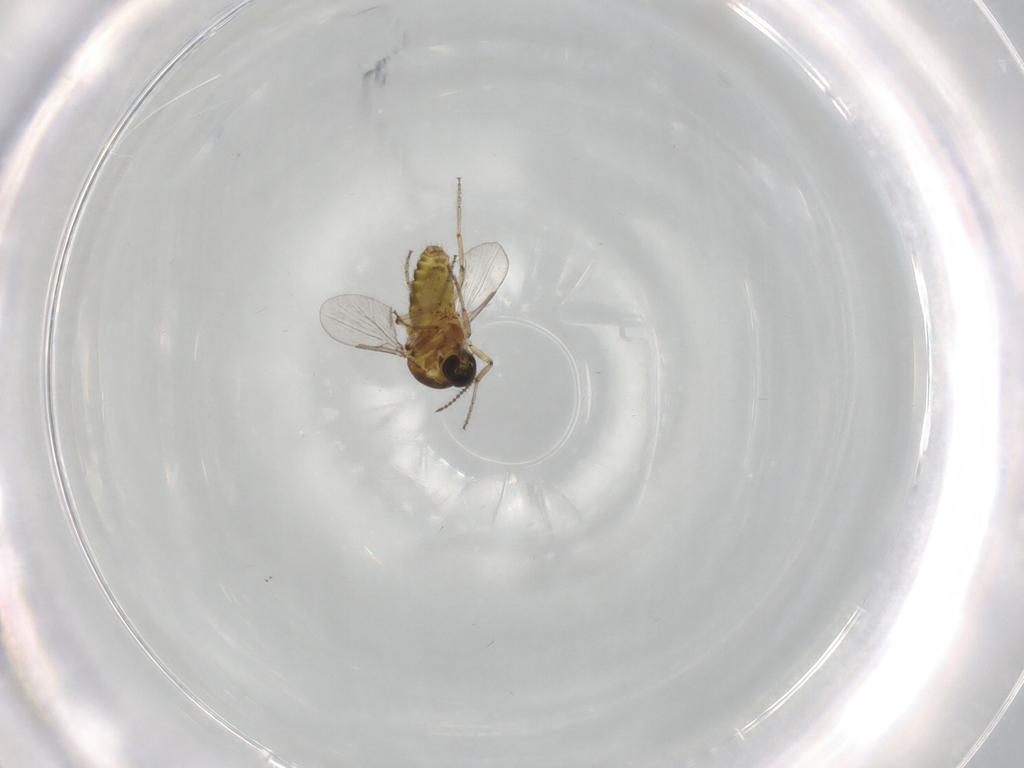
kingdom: Animalia
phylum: Arthropoda
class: Insecta
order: Diptera
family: Ceratopogonidae
